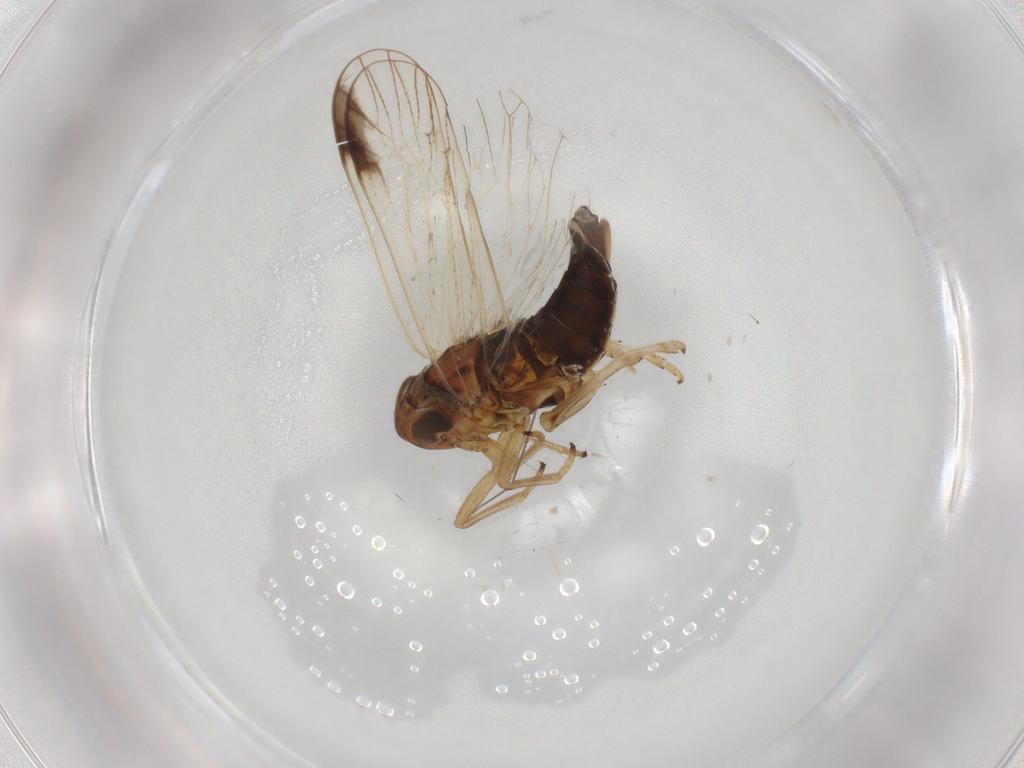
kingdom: Animalia
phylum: Arthropoda
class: Insecta
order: Hemiptera
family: Delphacidae
